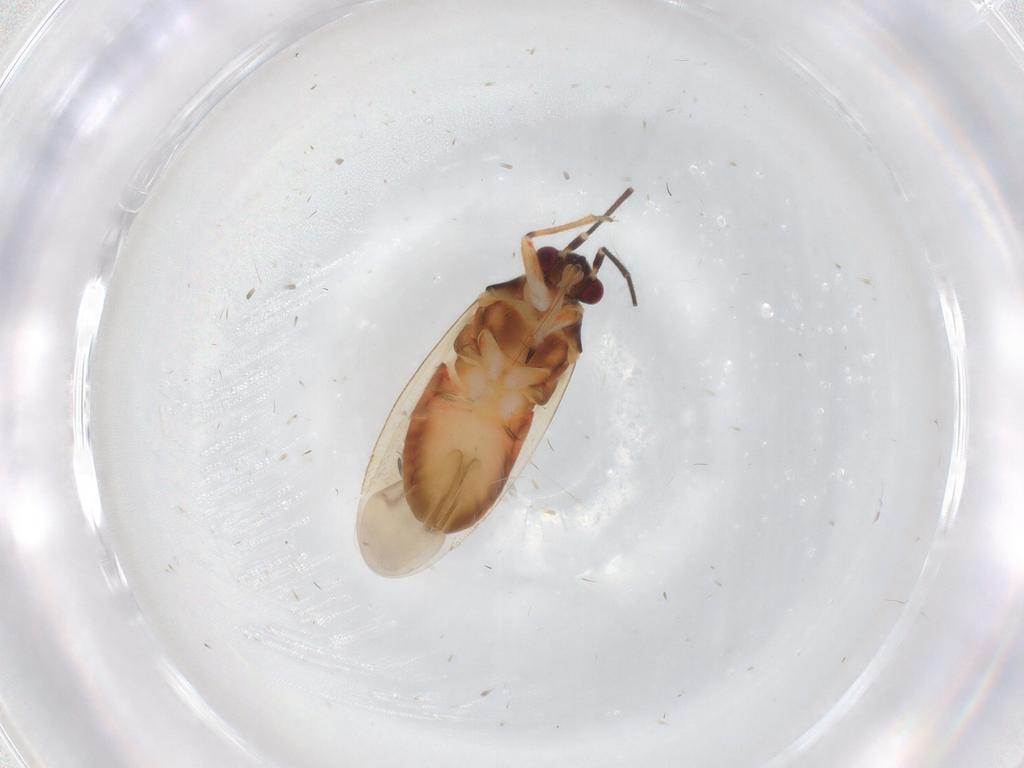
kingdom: Animalia
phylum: Arthropoda
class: Insecta
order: Hemiptera
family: Miridae
